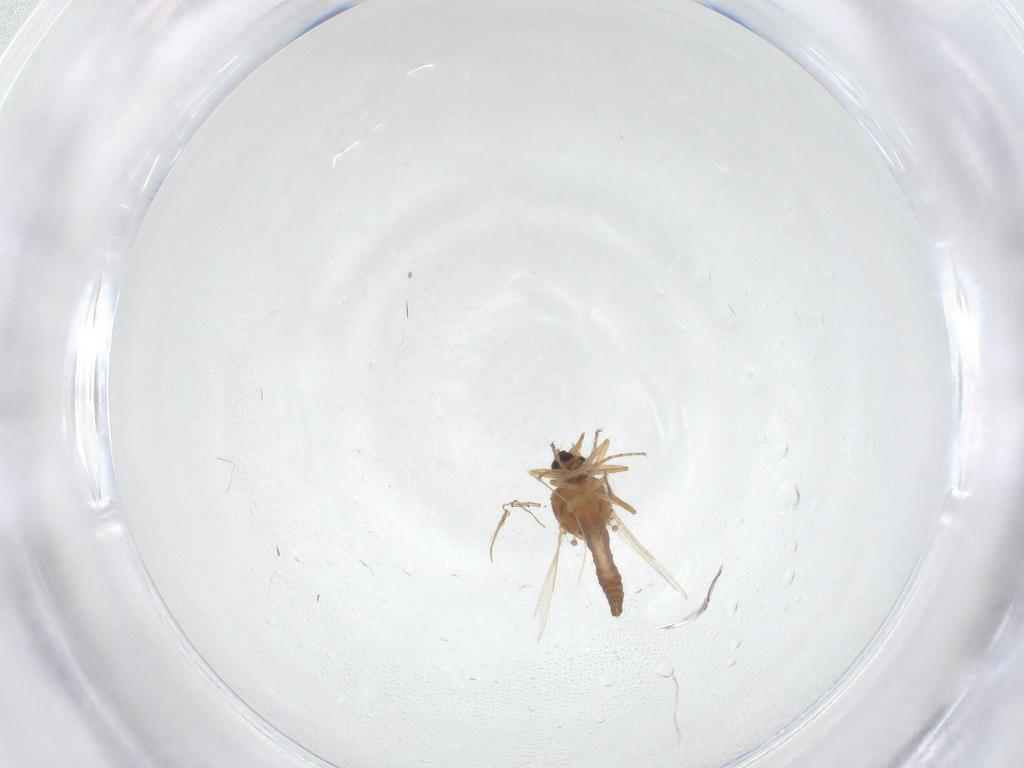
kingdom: Animalia
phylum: Arthropoda
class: Insecta
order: Diptera
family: Ceratopogonidae
